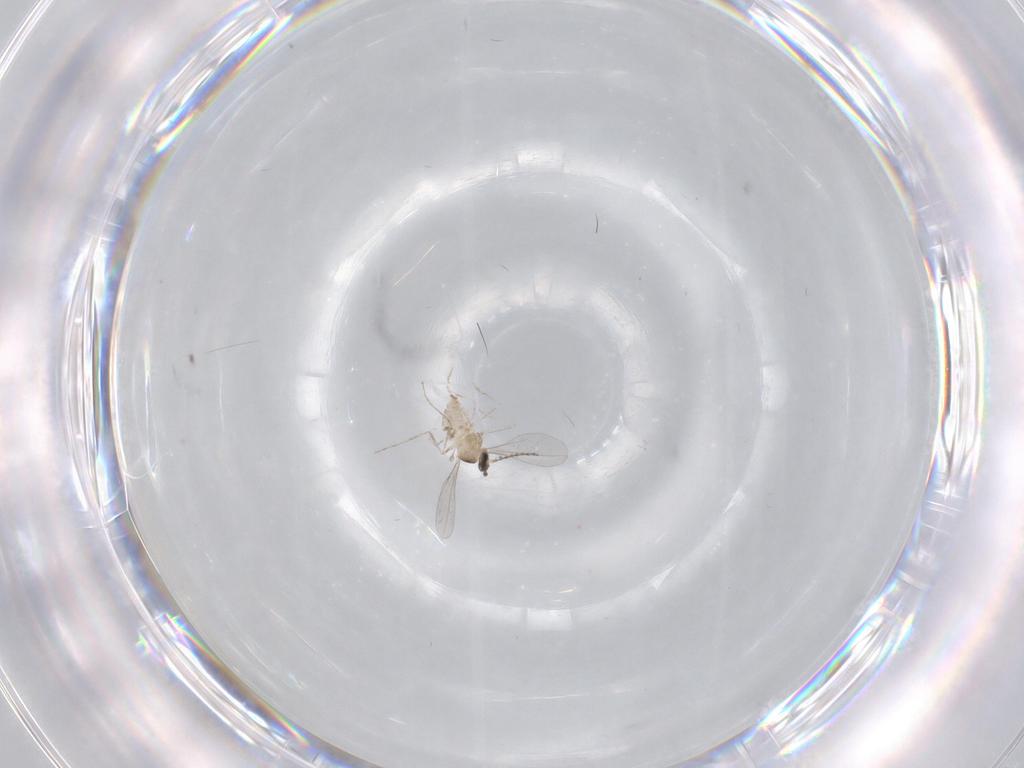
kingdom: Animalia
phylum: Arthropoda
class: Insecta
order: Diptera
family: Cecidomyiidae
